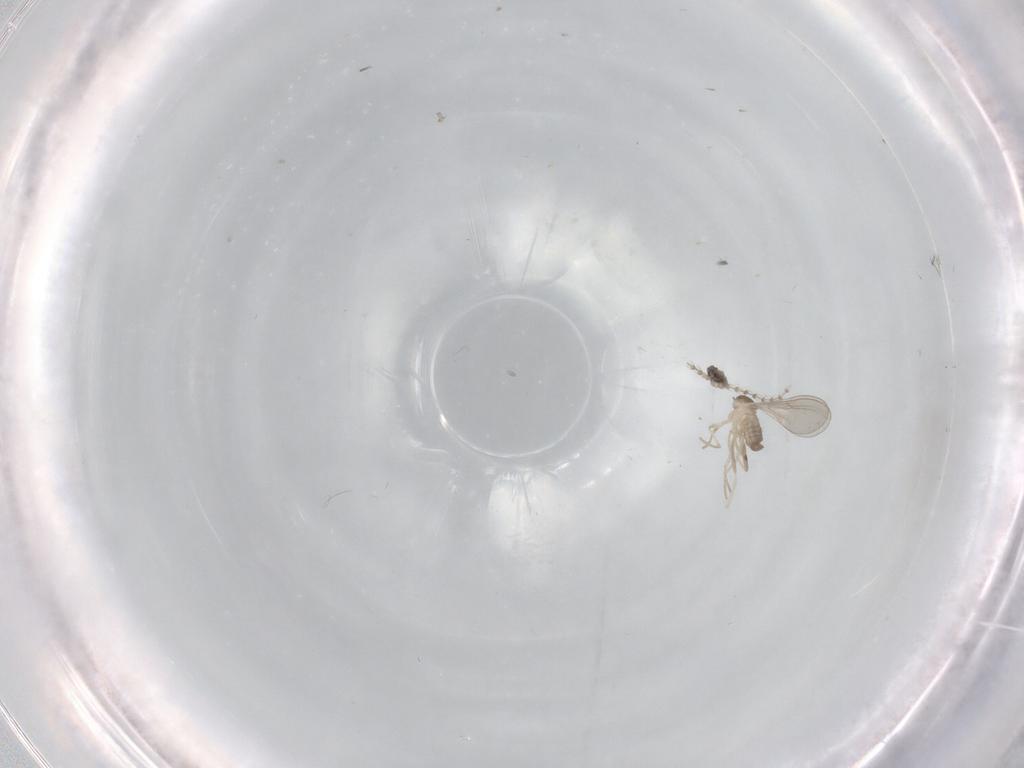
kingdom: Animalia
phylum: Arthropoda
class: Insecta
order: Diptera
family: Cecidomyiidae
